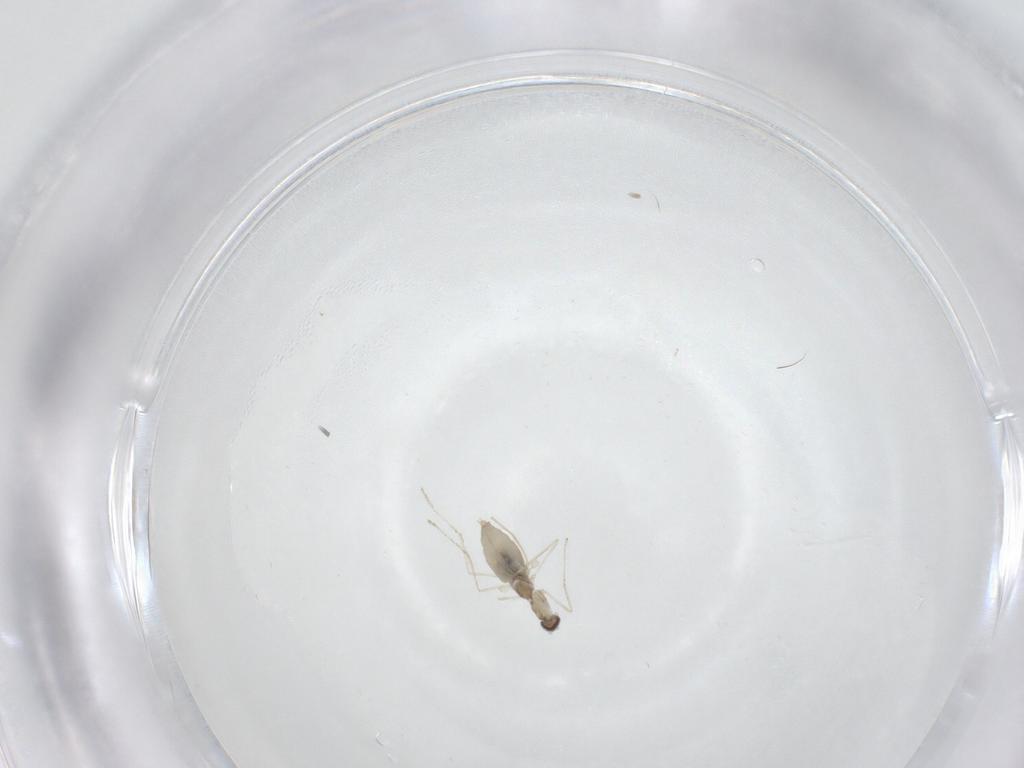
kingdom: Animalia
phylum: Arthropoda
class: Insecta
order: Diptera
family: Cecidomyiidae
